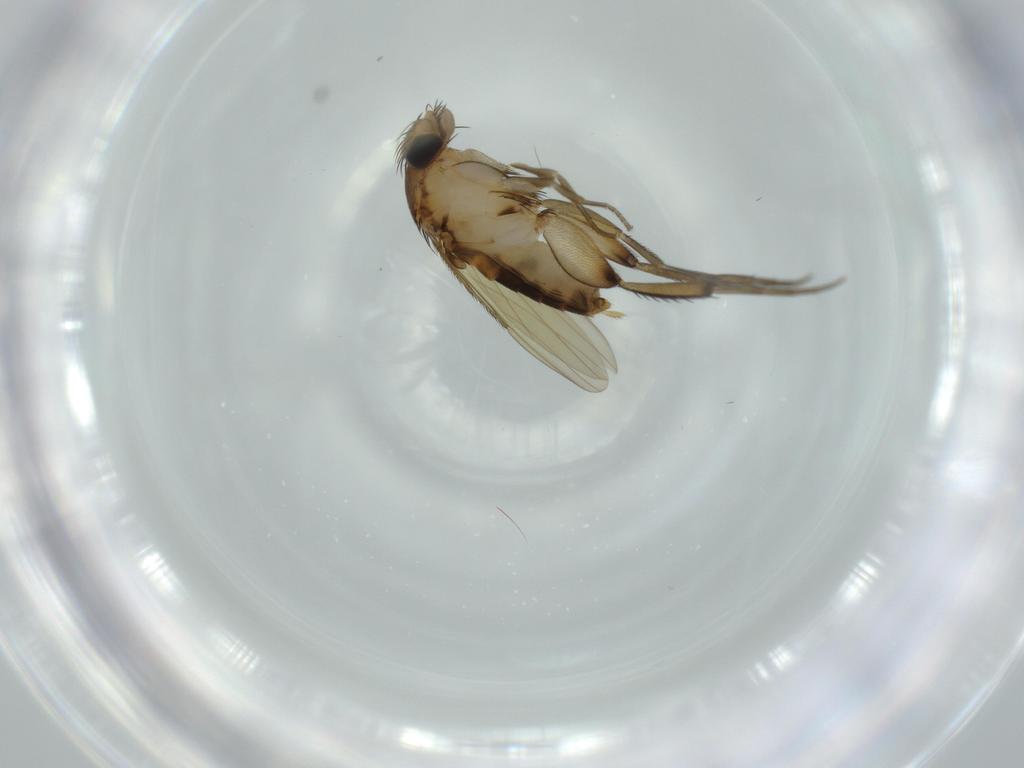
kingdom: Animalia
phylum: Arthropoda
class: Insecta
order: Diptera
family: Phoridae
